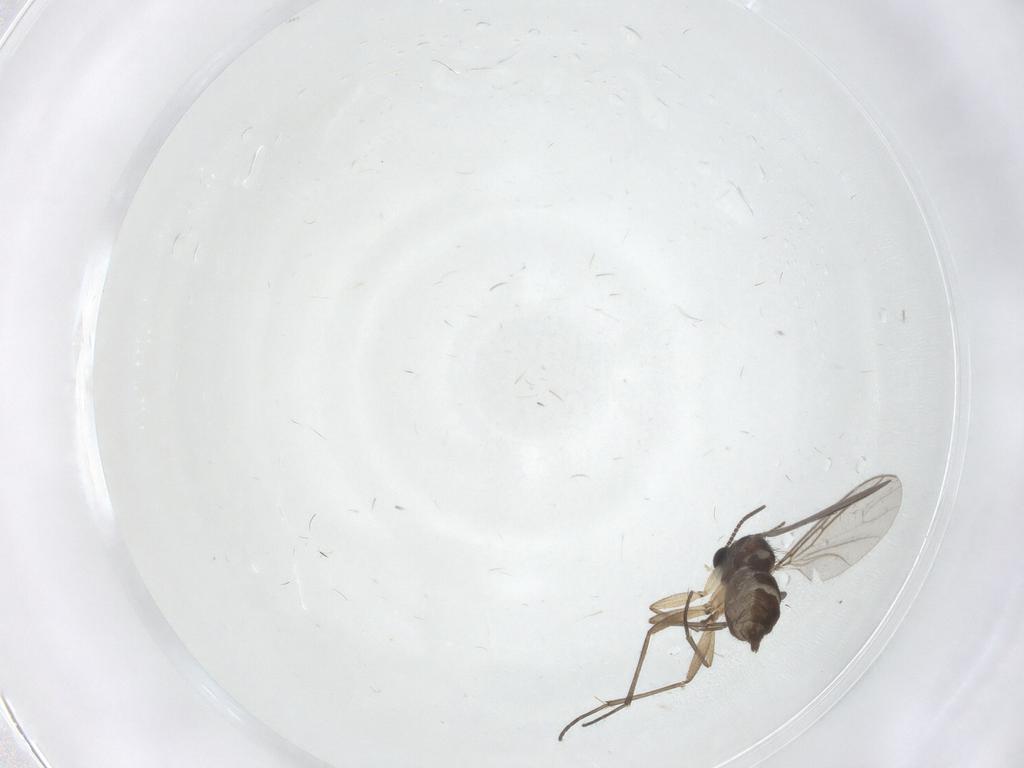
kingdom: Animalia
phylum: Arthropoda
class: Insecta
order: Diptera
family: Sciaridae
